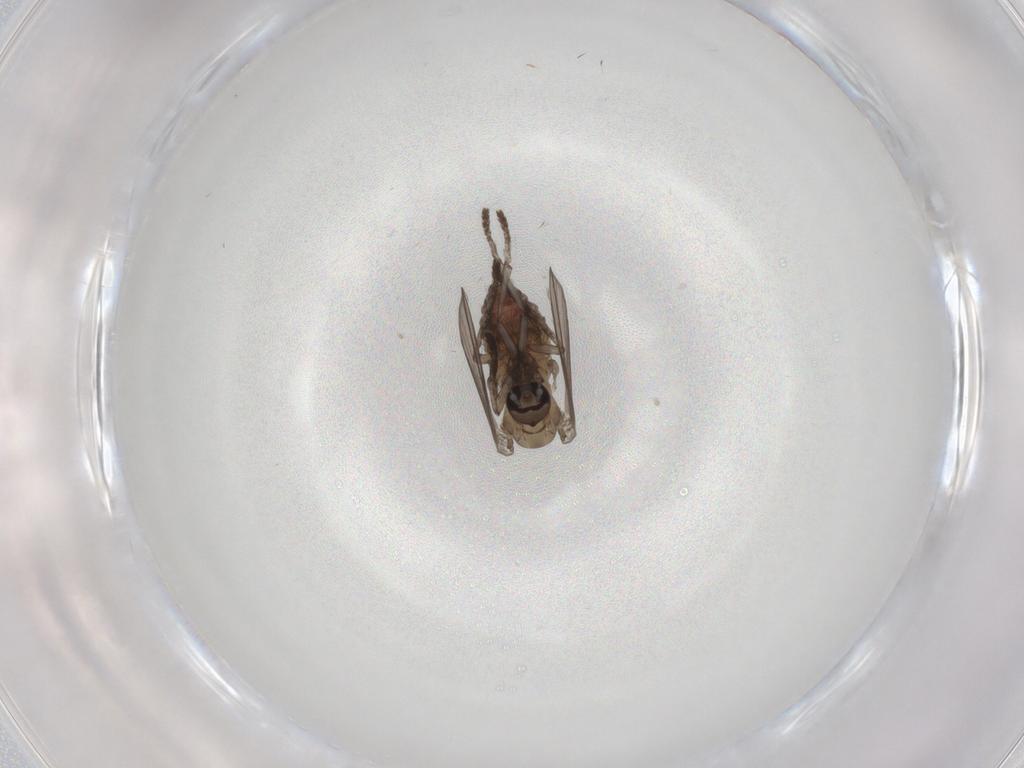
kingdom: Animalia
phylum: Arthropoda
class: Insecta
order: Diptera
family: Psychodidae
